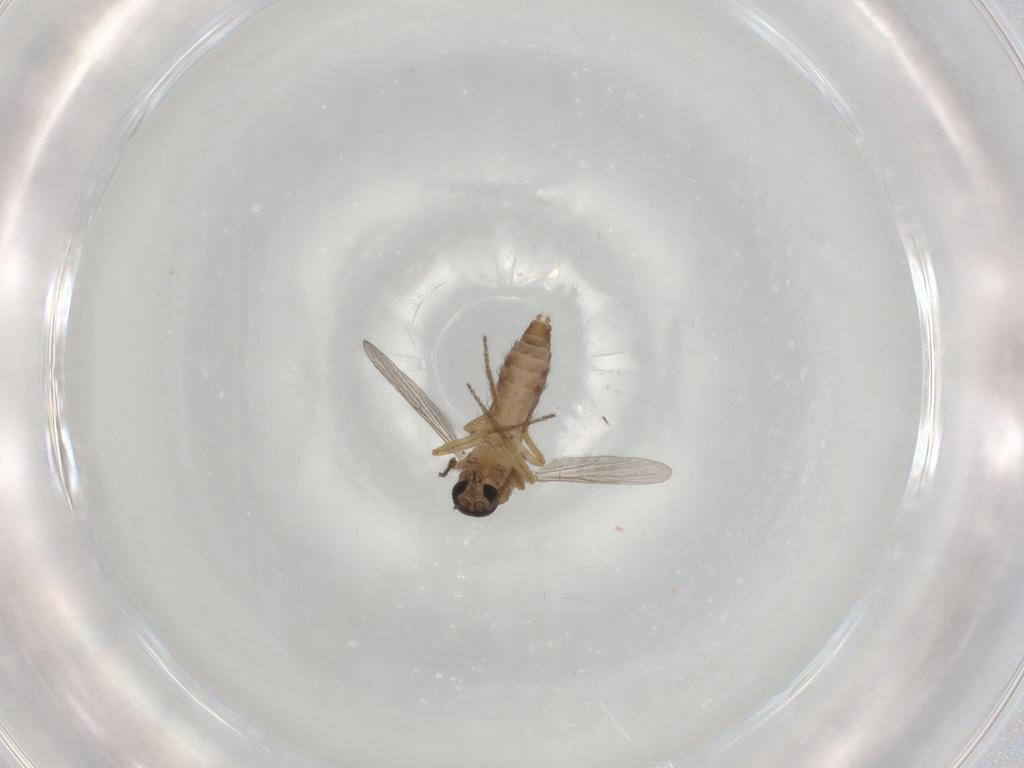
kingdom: Animalia
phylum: Arthropoda
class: Insecta
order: Diptera
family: Ceratopogonidae
